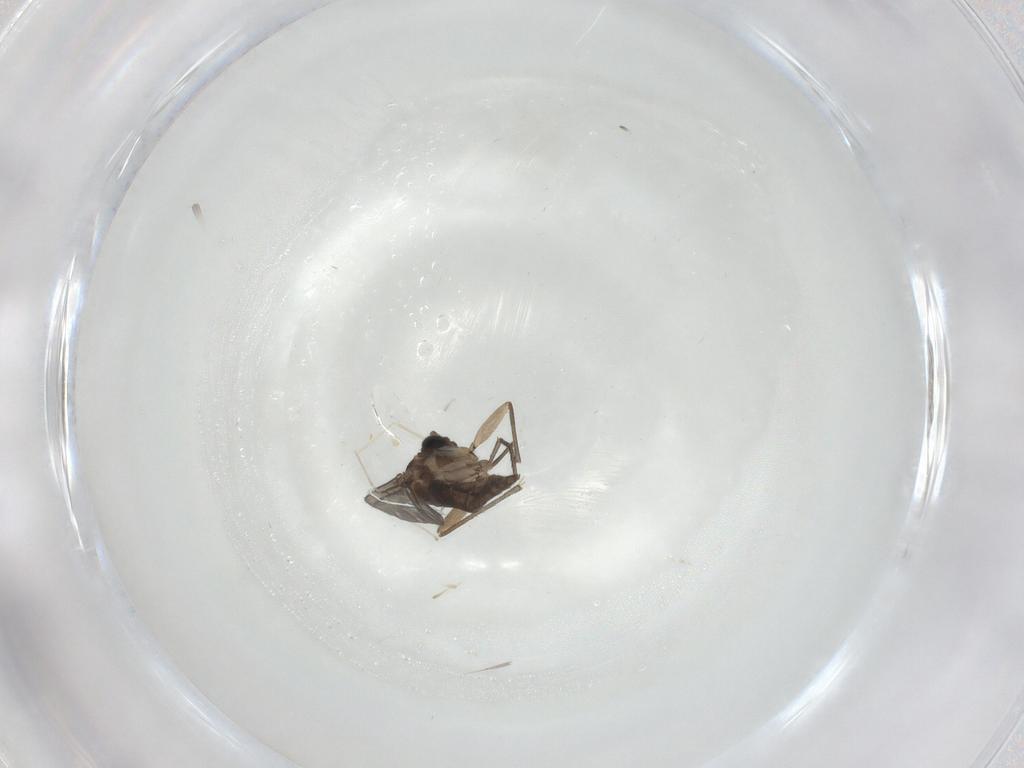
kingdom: Animalia
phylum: Arthropoda
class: Insecta
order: Diptera
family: Sciaridae
